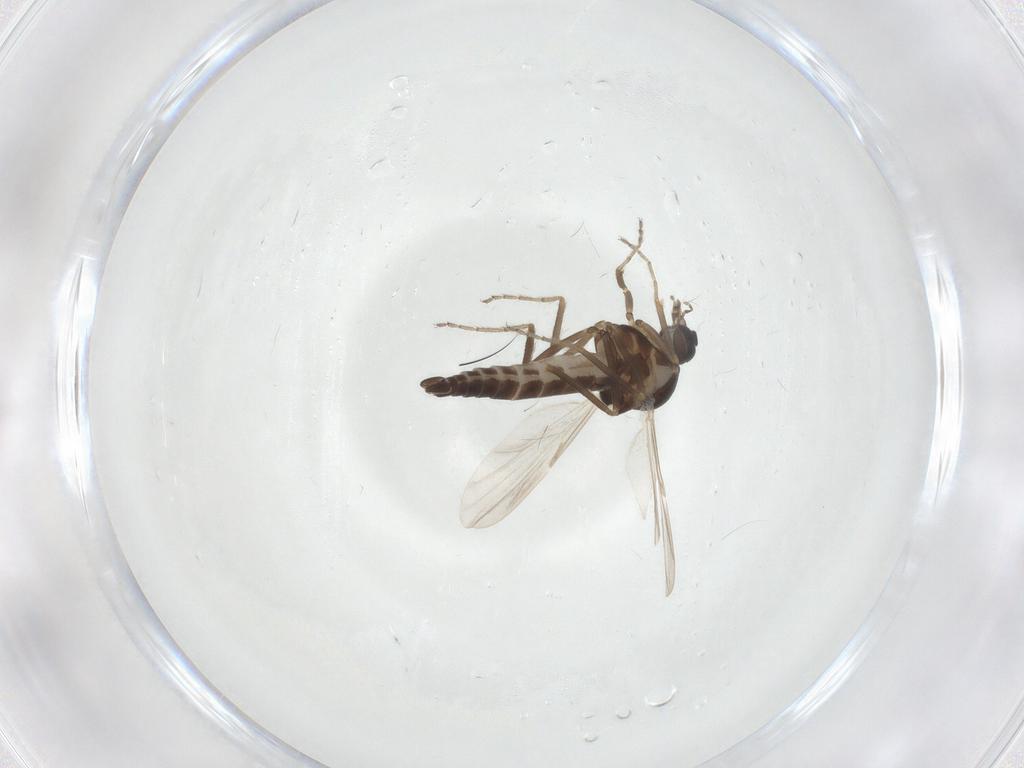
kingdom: Animalia
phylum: Arthropoda
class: Insecta
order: Diptera
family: Ceratopogonidae
